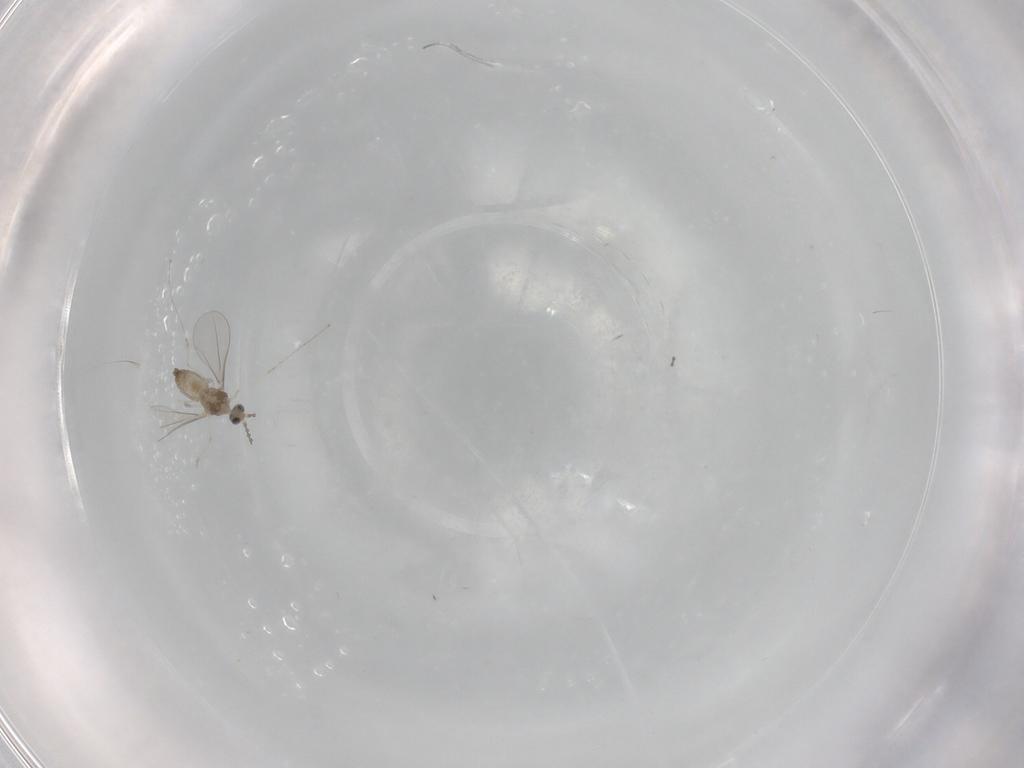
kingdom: Animalia
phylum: Arthropoda
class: Insecta
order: Diptera
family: Cecidomyiidae
